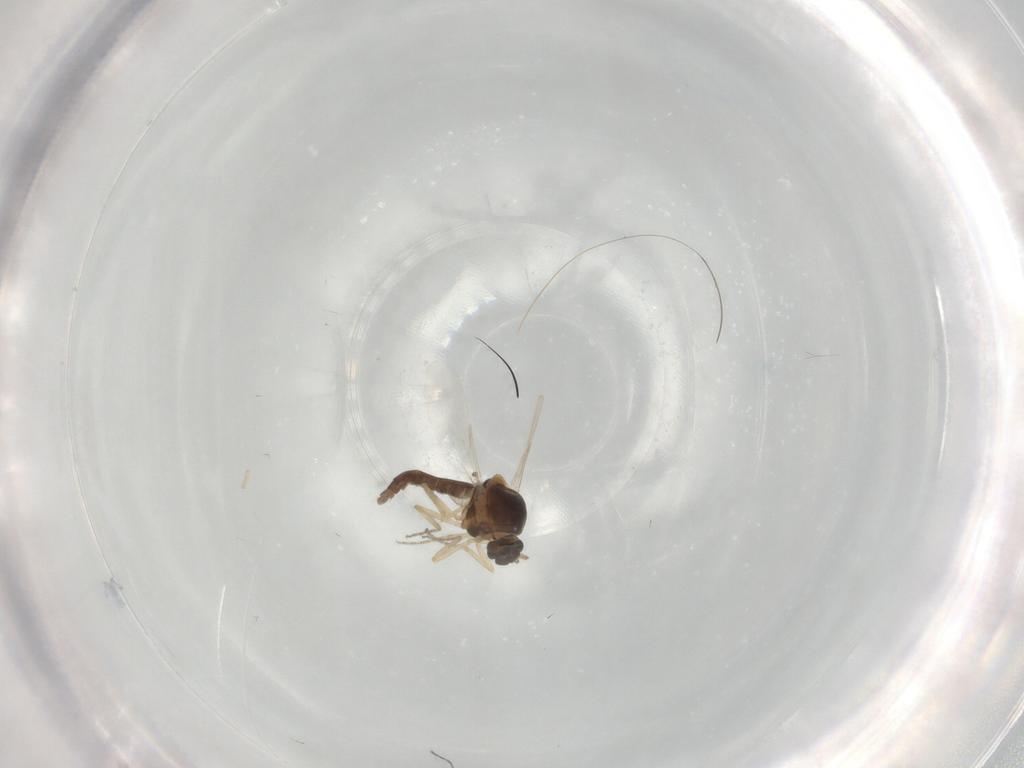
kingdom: Animalia
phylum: Arthropoda
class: Insecta
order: Diptera
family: Ceratopogonidae
